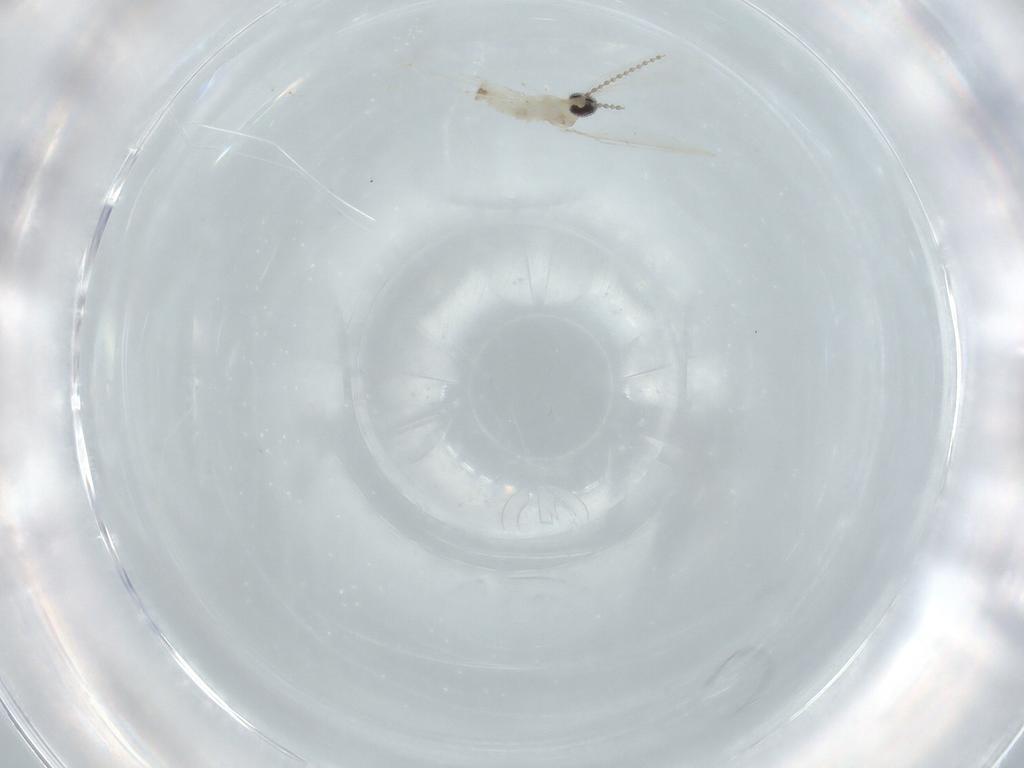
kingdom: Animalia
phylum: Arthropoda
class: Insecta
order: Diptera
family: Cecidomyiidae
